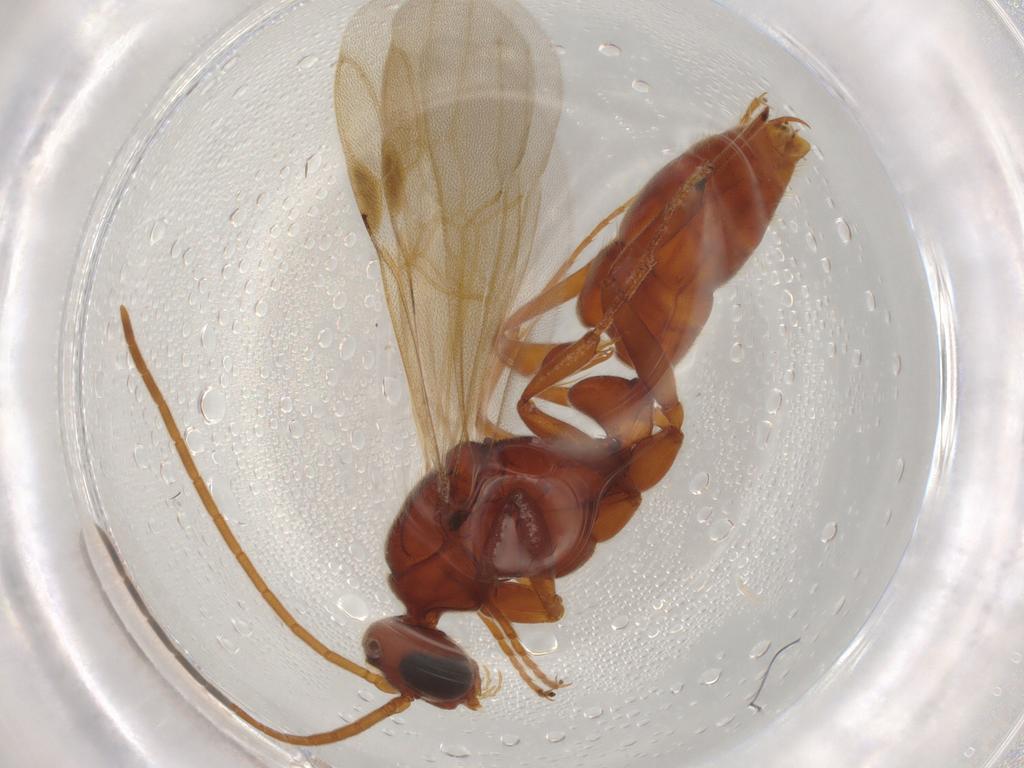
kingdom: Animalia
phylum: Arthropoda
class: Insecta
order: Hymenoptera
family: Formicidae
